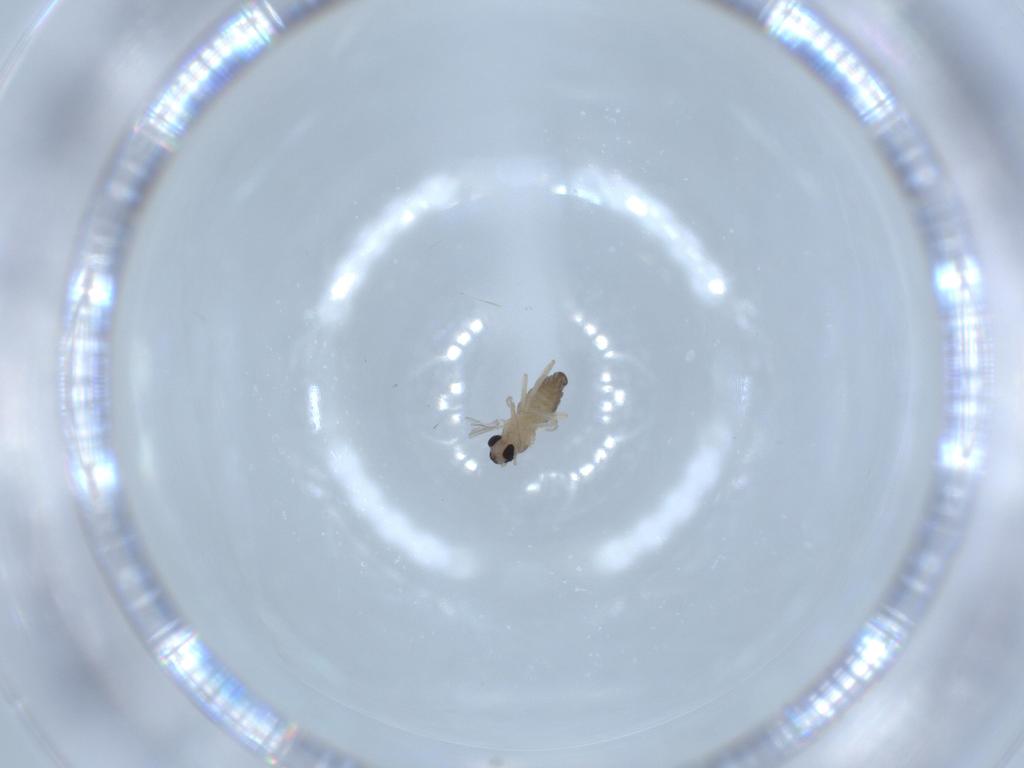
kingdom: Animalia
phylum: Arthropoda
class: Insecta
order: Diptera
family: Cecidomyiidae
